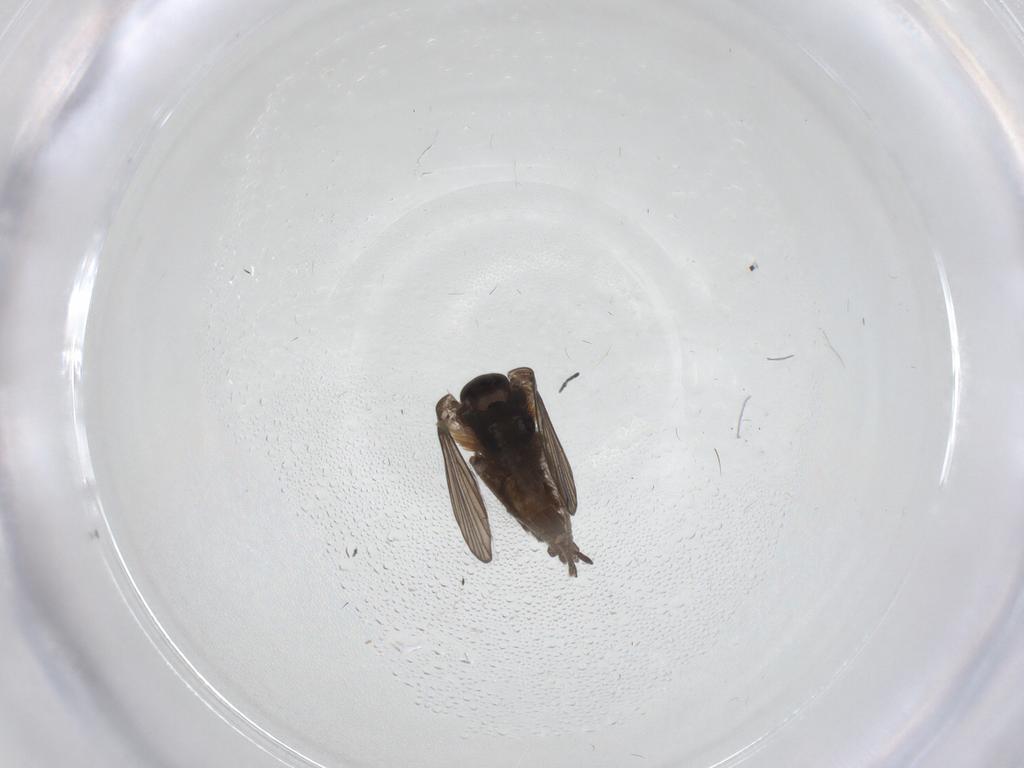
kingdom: Animalia
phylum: Arthropoda
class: Insecta
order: Diptera
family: Psychodidae
